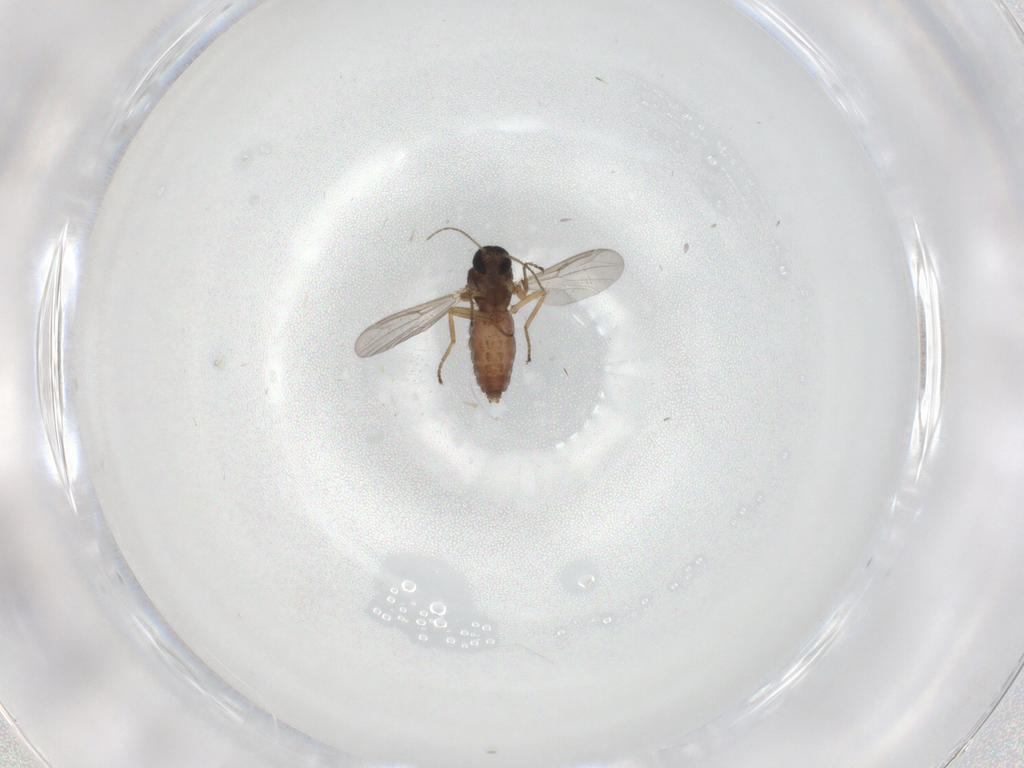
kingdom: Animalia
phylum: Arthropoda
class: Insecta
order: Diptera
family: Ceratopogonidae
